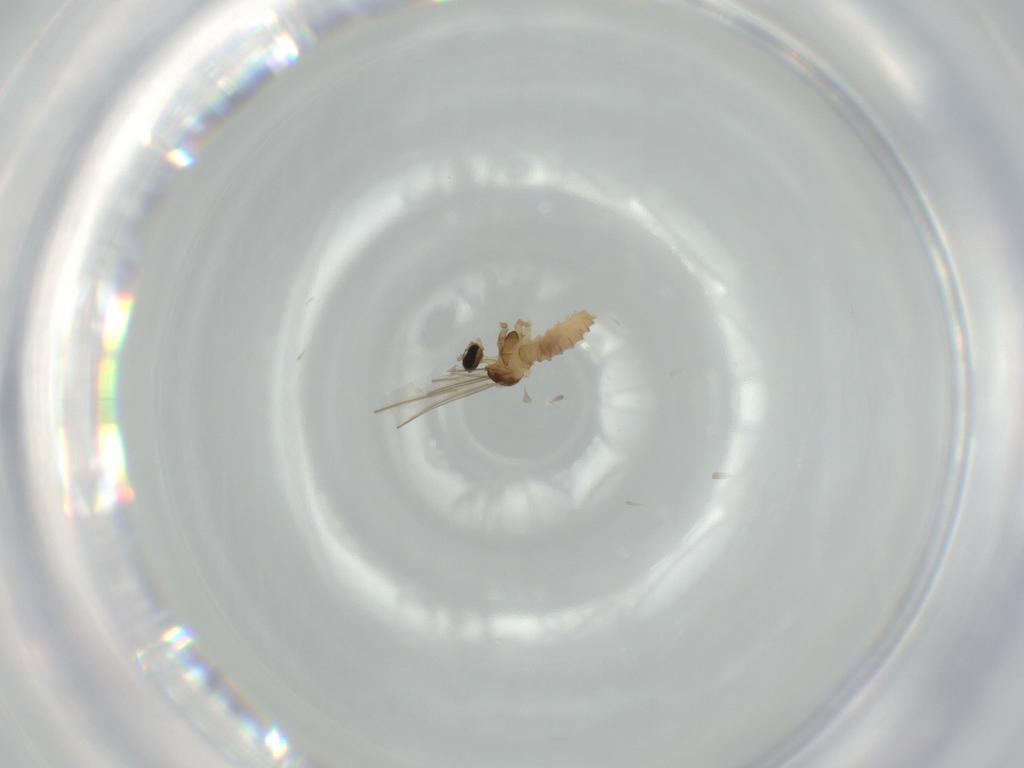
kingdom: Animalia
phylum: Arthropoda
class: Insecta
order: Diptera
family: Cecidomyiidae
